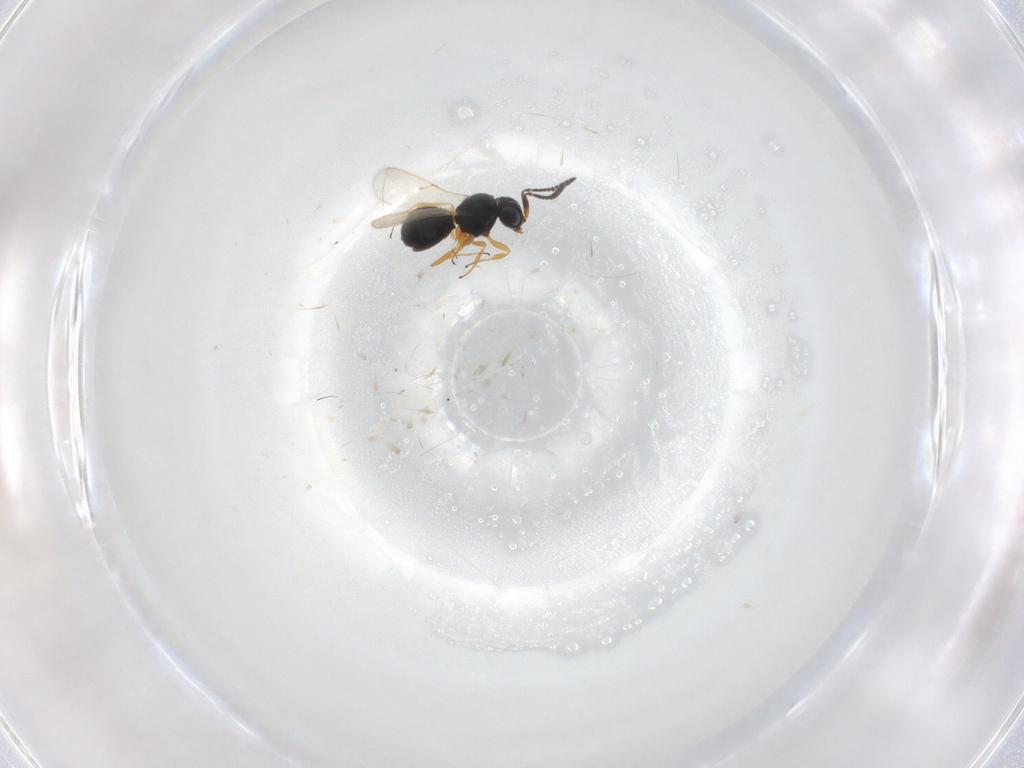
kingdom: Animalia
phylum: Arthropoda
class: Insecta
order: Hymenoptera
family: Scelionidae
